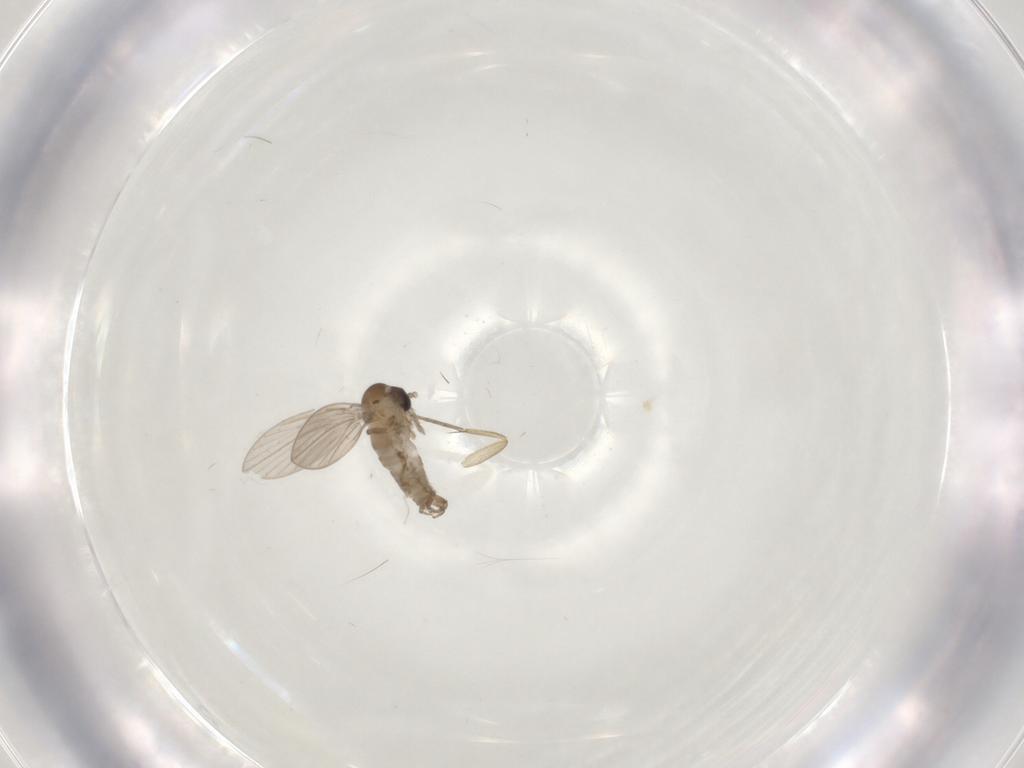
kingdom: Animalia
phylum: Arthropoda
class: Insecta
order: Diptera
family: Psychodidae
